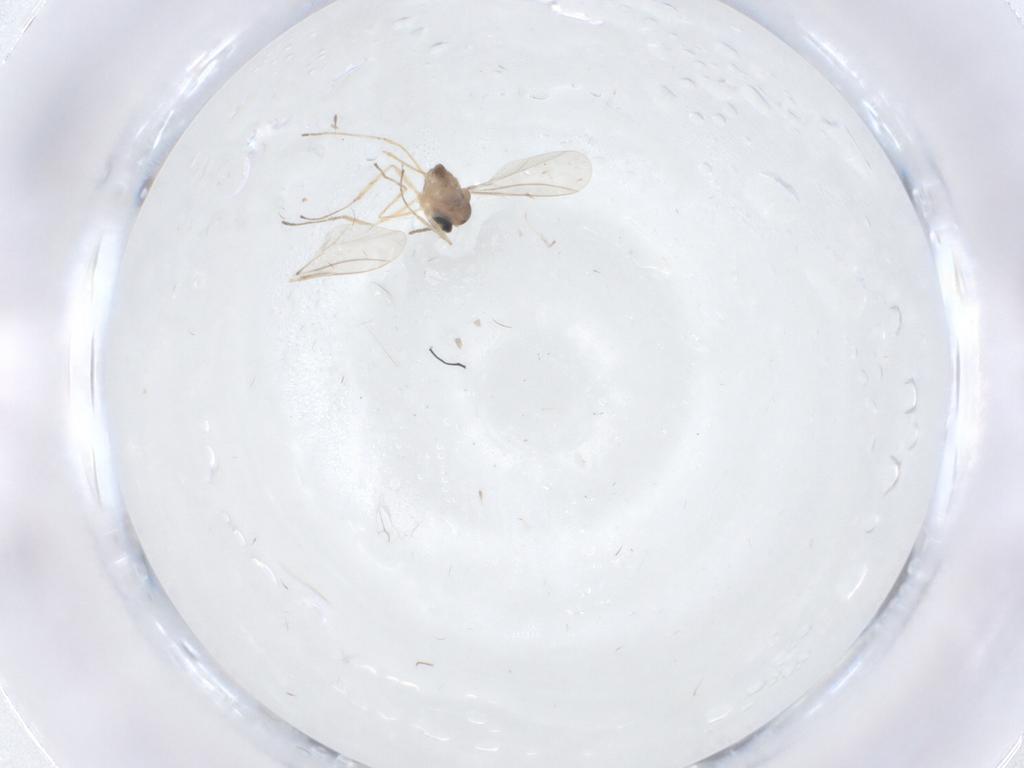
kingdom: Animalia
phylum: Arthropoda
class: Insecta
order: Diptera
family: Cecidomyiidae
